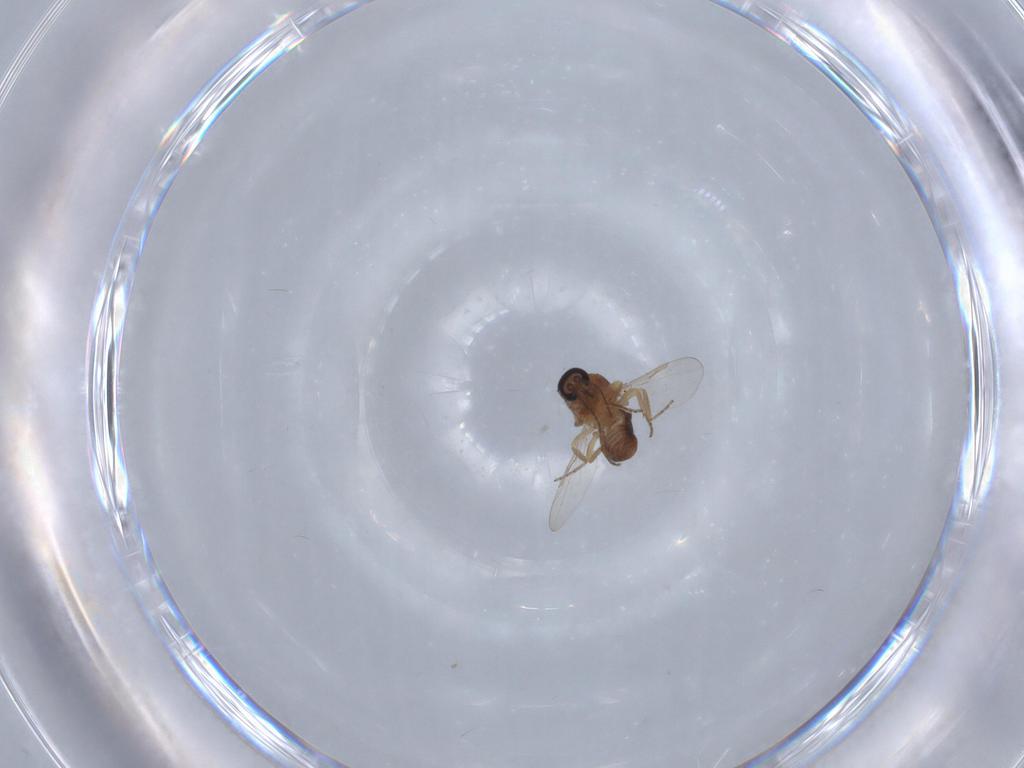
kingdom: Animalia
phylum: Arthropoda
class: Insecta
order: Diptera
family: Ceratopogonidae
